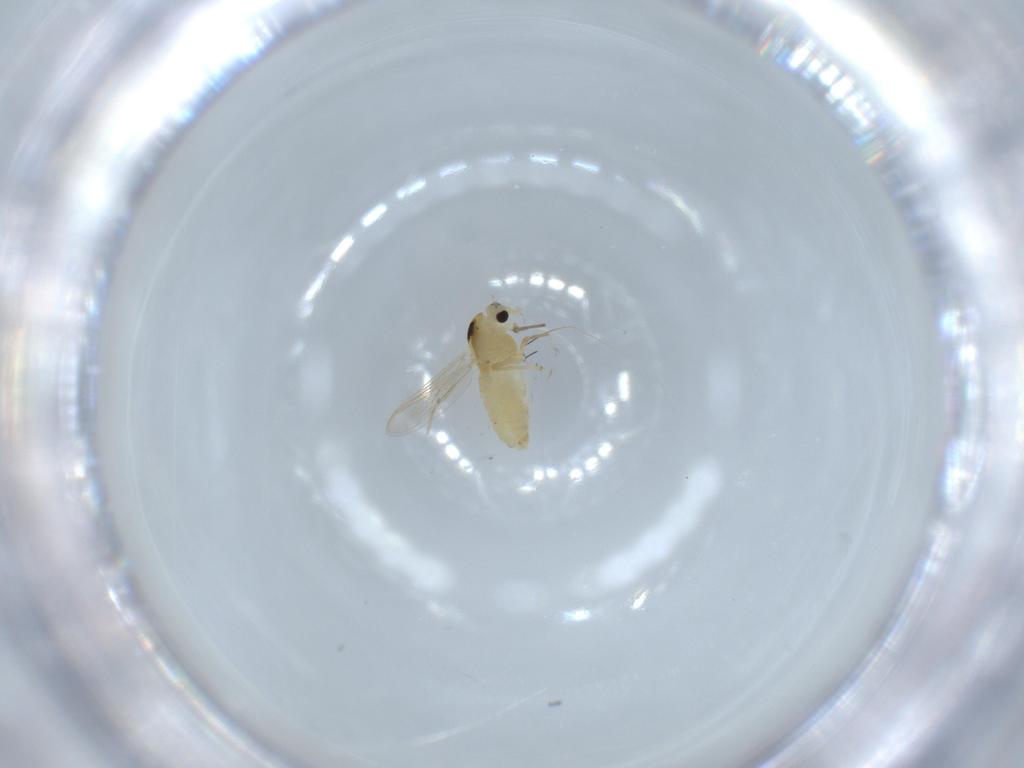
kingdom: Animalia
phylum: Arthropoda
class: Insecta
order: Diptera
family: Chironomidae
